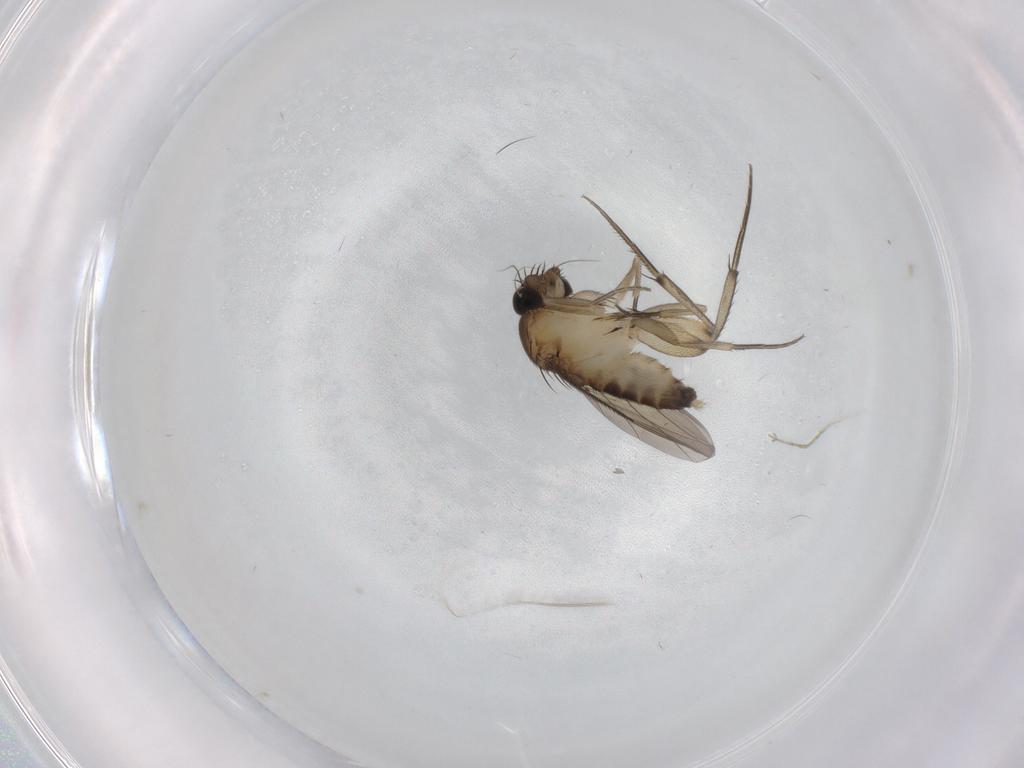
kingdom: Animalia
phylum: Arthropoda
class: Insecta
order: Diptera
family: Phoridae
